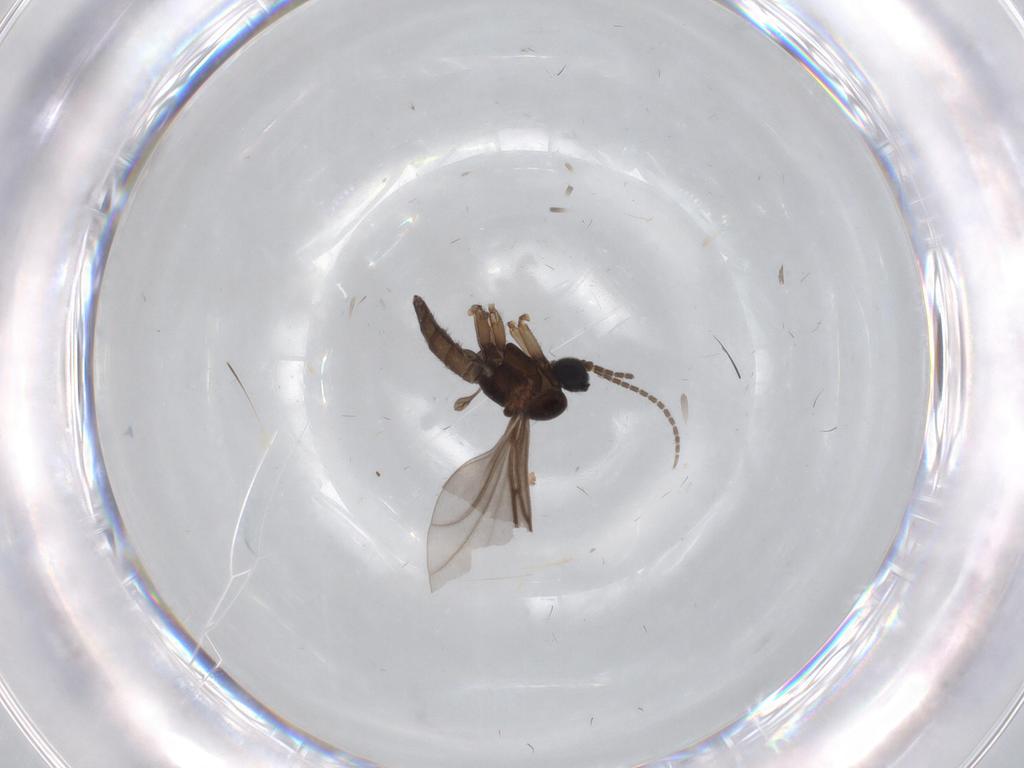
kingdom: Animalia
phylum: Arthropoda
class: Insecta
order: Diptera
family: Sciaridae
